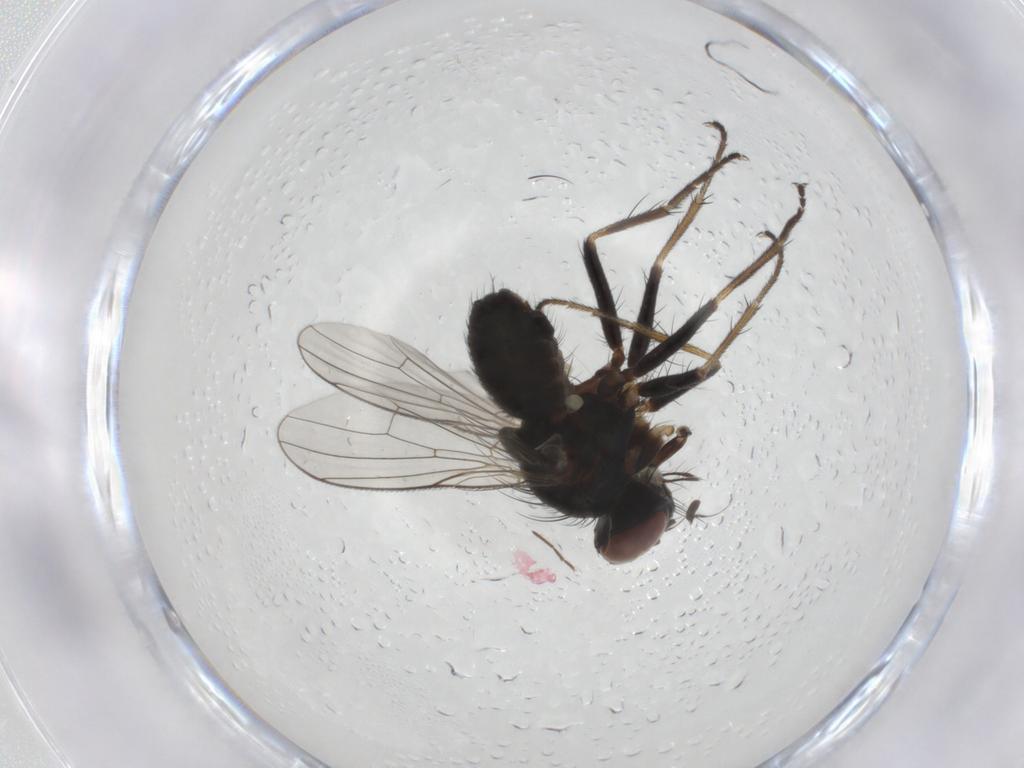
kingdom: Animalia
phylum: Arthropoda
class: Insecta
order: Diptera
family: Muscidae
